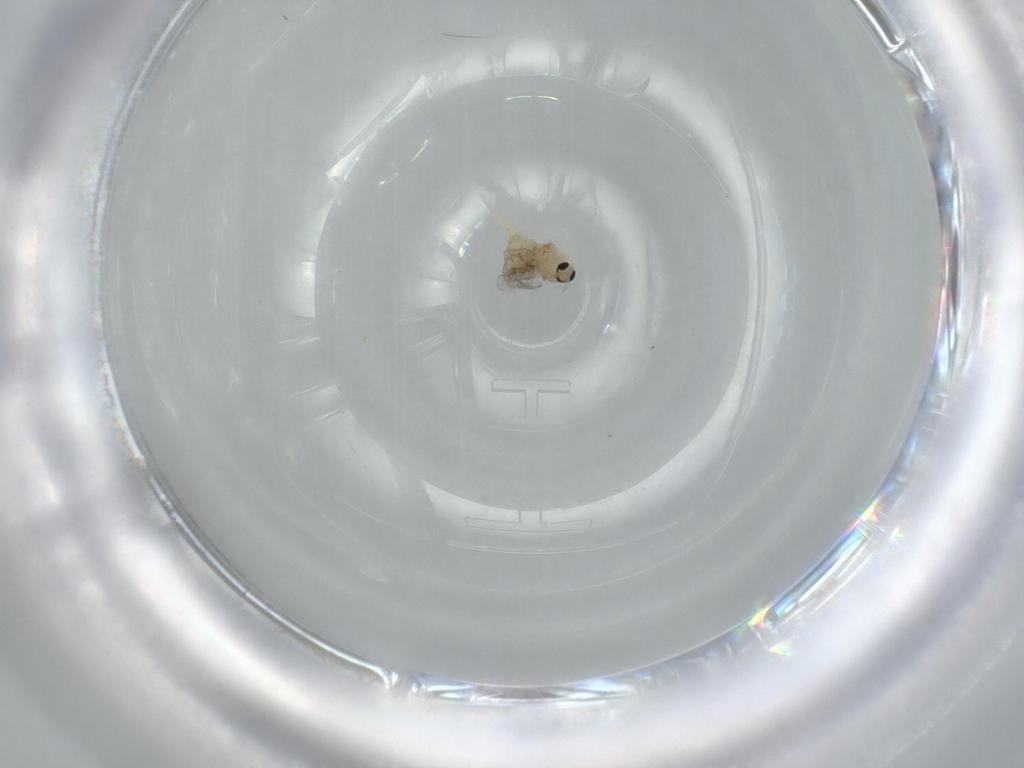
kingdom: Animalia
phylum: Arthropoda
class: Insecta
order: Diptera
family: Cecidomyiidae
